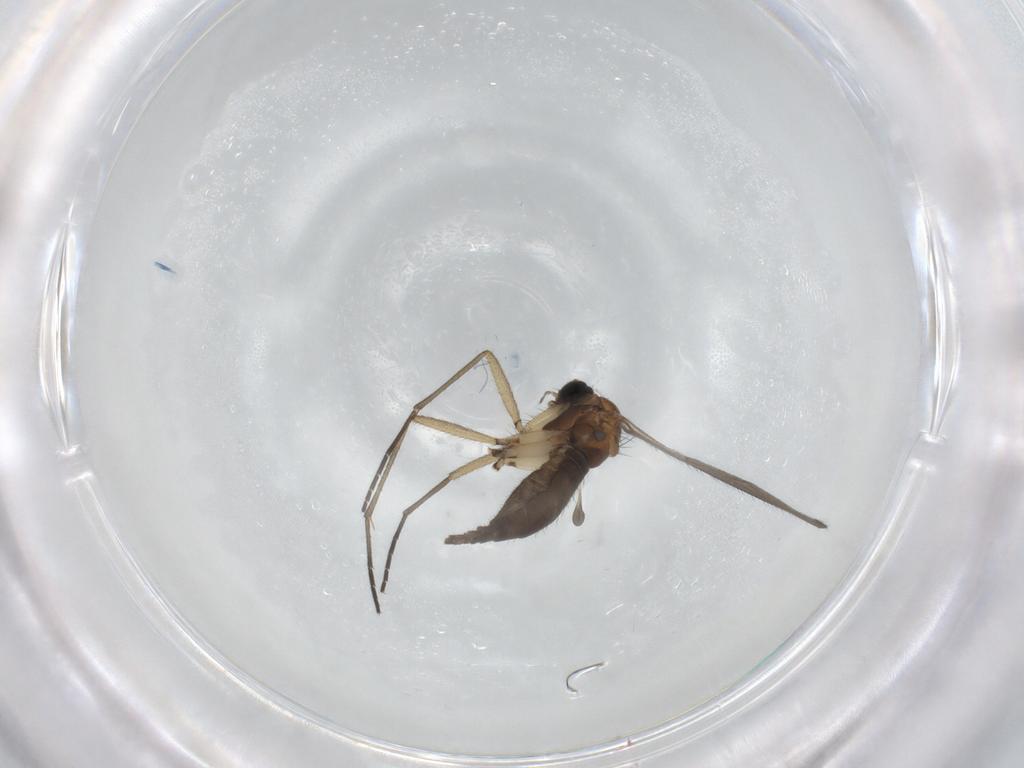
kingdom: Animalia
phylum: Arthropoda
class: Insecta
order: Diptera
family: Sciaridae
